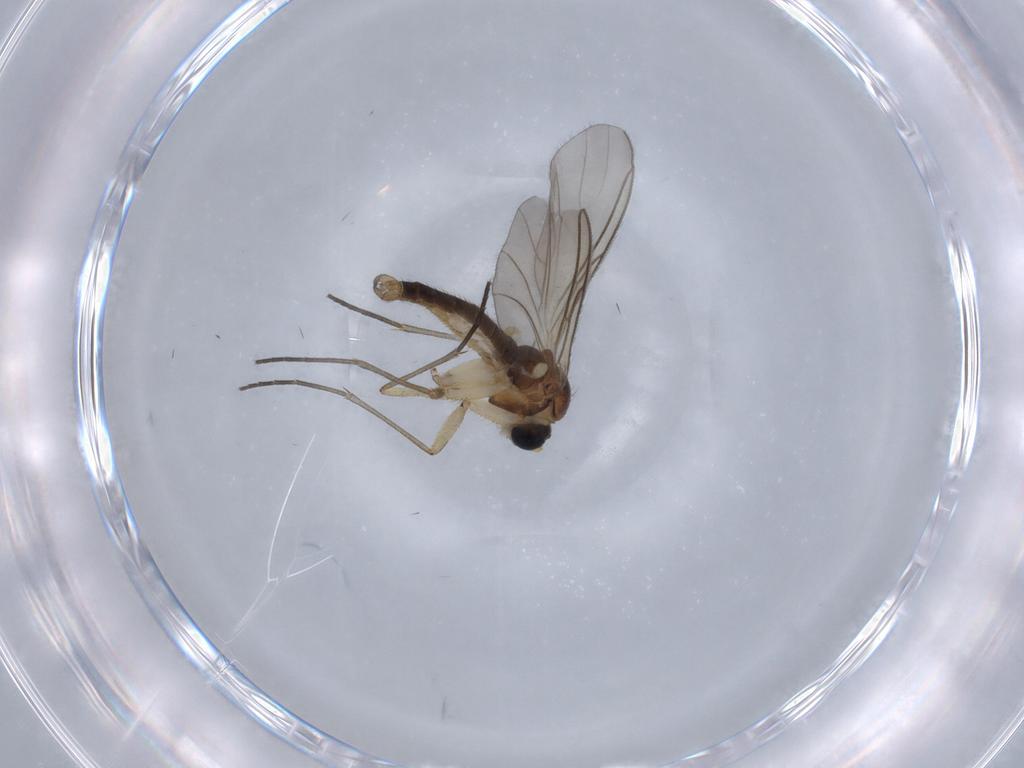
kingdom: Animalia
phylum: Arthropoda
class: Insecta
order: Diptera
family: Sciaridae
